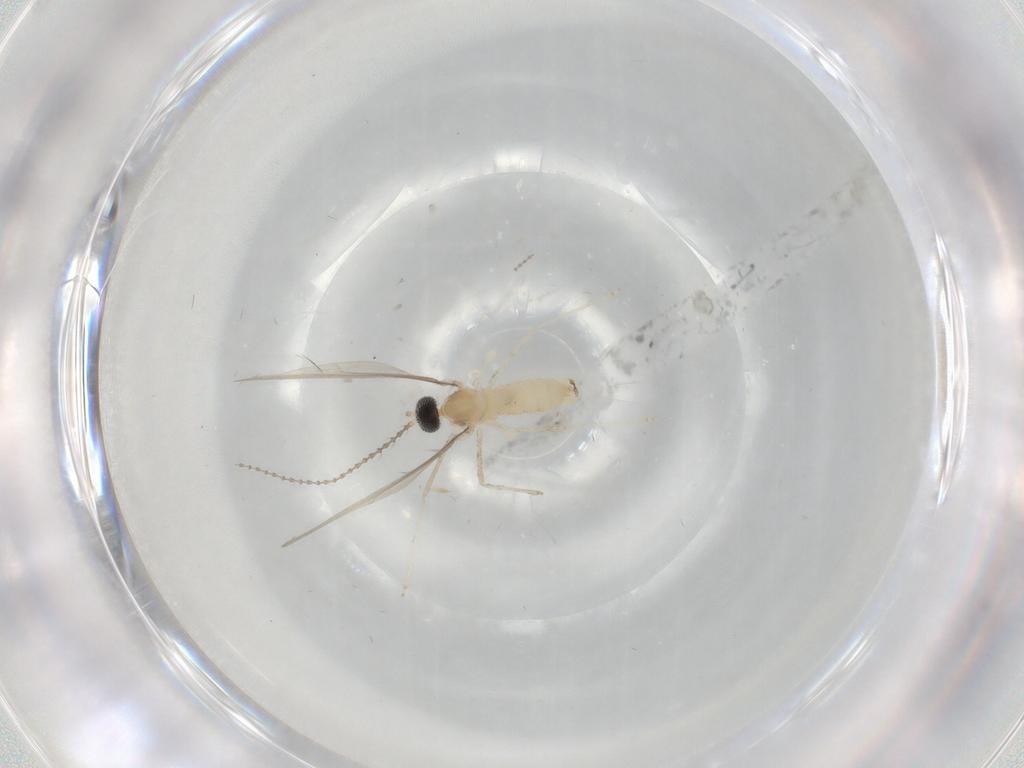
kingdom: Animalia
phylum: Arthropoda
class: Insecta
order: Diptera
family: Cecidomyiidae
